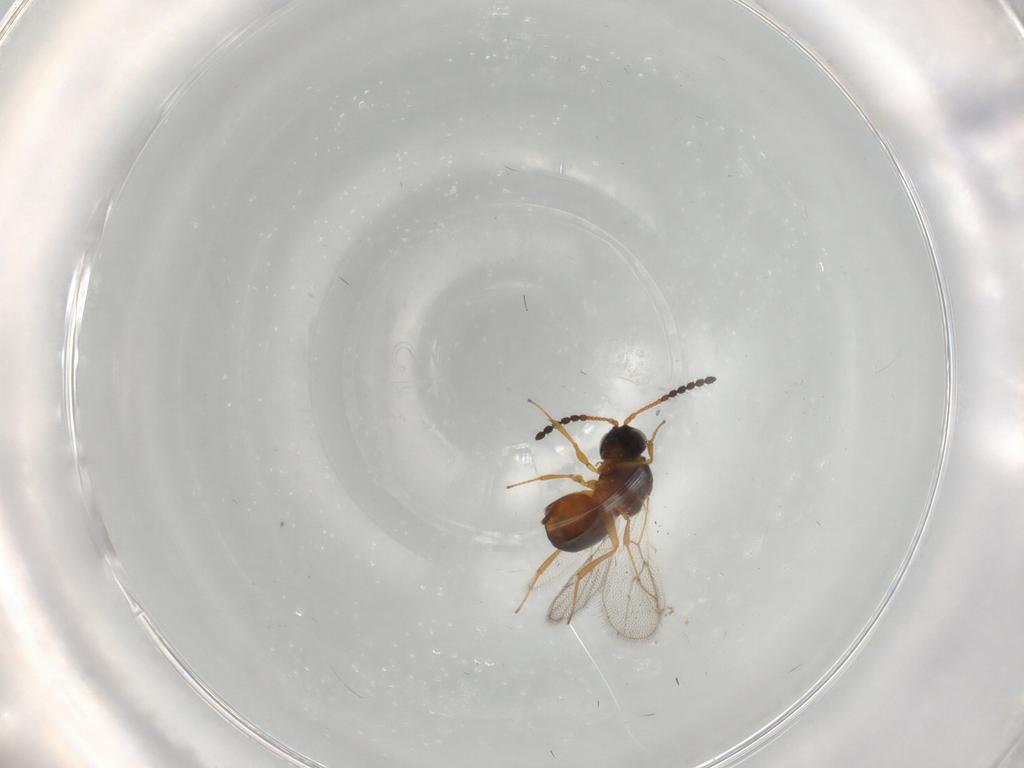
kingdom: Animalia
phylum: Arthropoda
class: Insecta
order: Hymenoptera
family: Figitidae
